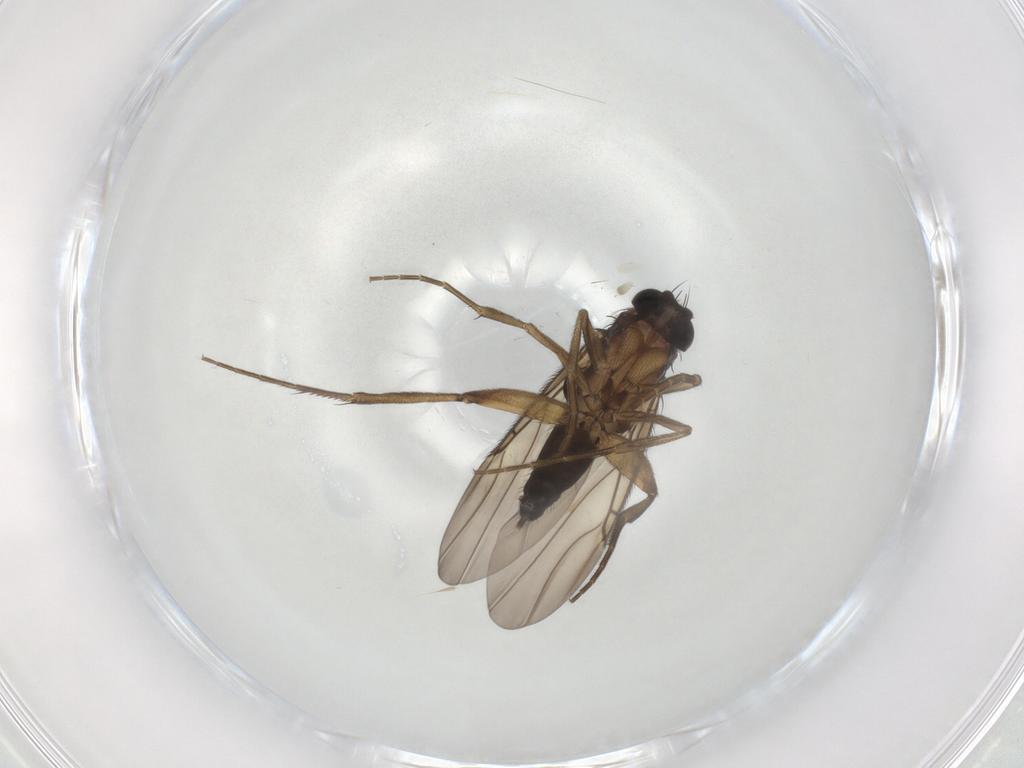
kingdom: Animalia
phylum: Arthropoda
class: Insecta
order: Diptera
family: Phoridae
